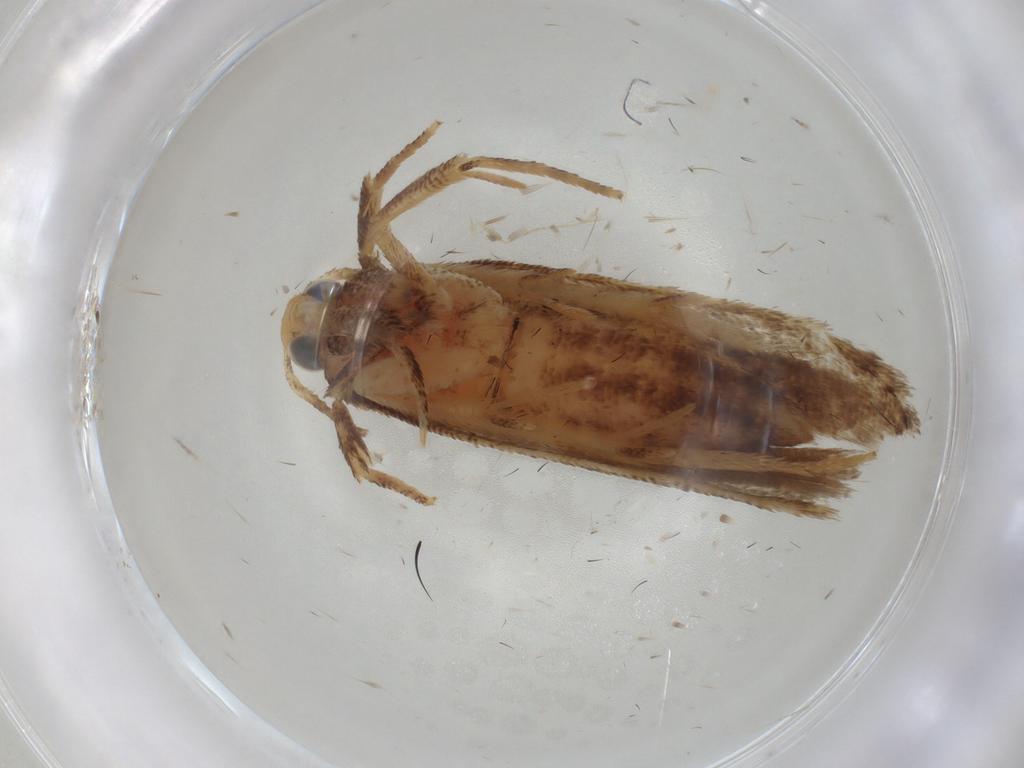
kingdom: Animalia
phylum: Arthropoda
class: Insecta
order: Lepidoptera
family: Gelechiidae
